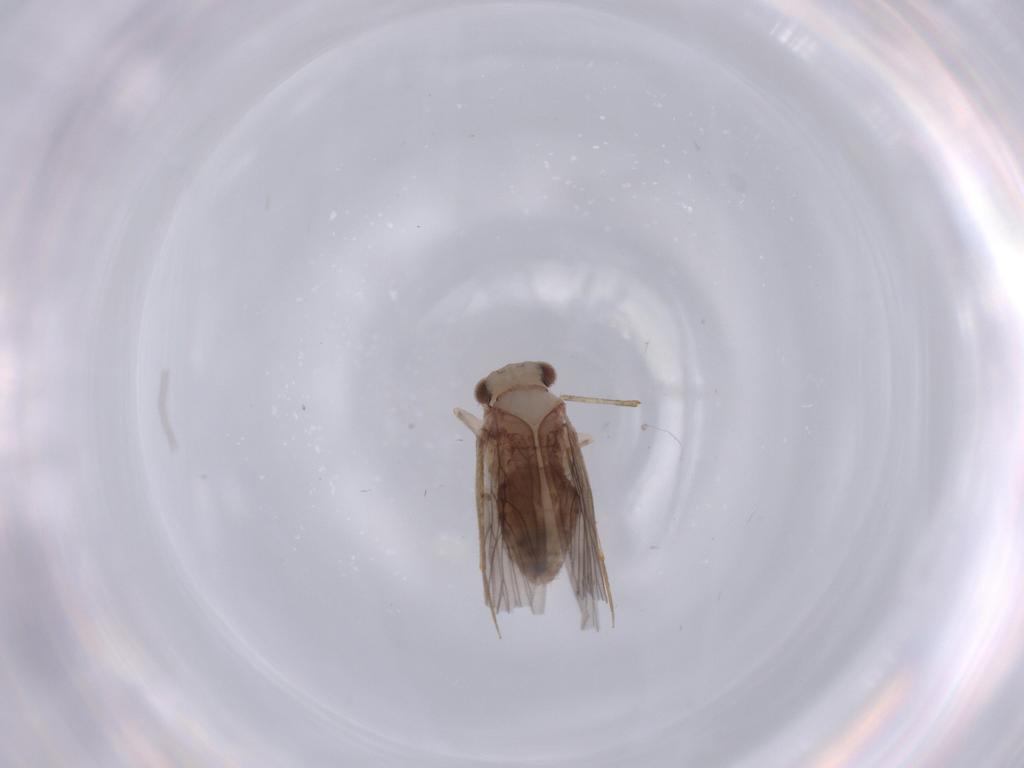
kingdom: Animalia
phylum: Arthropoda
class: Insecta
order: Psocodea
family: Lepidopsocidae
